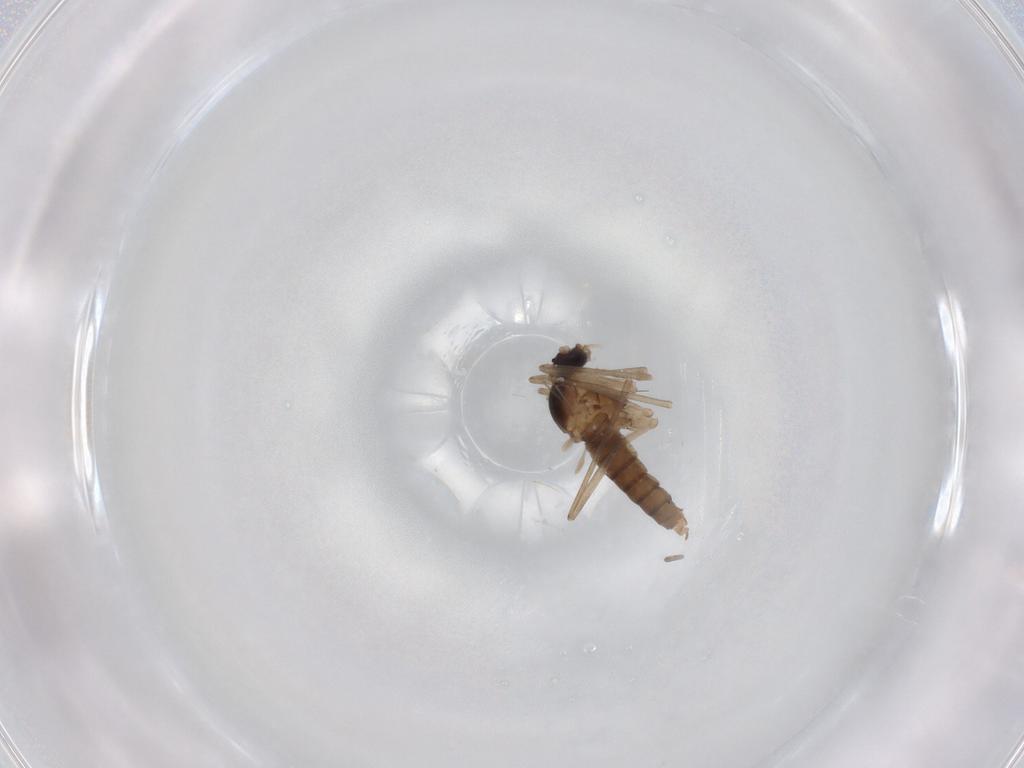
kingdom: Animalia
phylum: Arthropoda
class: Insecta
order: Diptera
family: Cecidomyiidae
